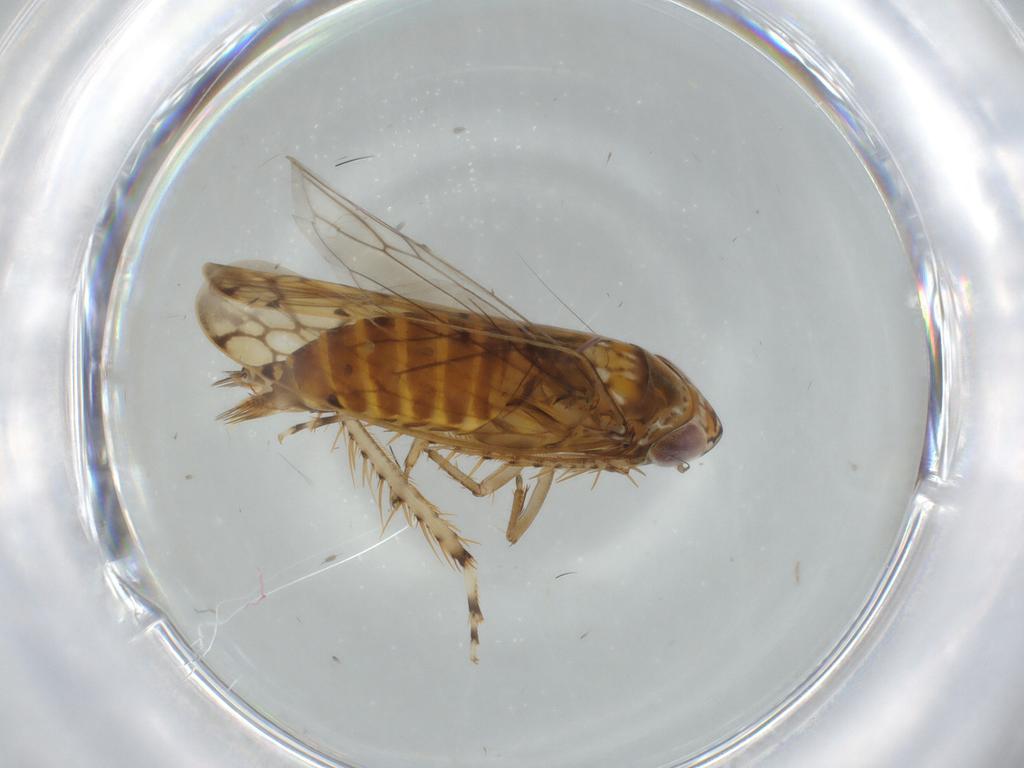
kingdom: Animalia
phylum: Arthropoda
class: Insecta
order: Hemiptera
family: Cicadellidae
